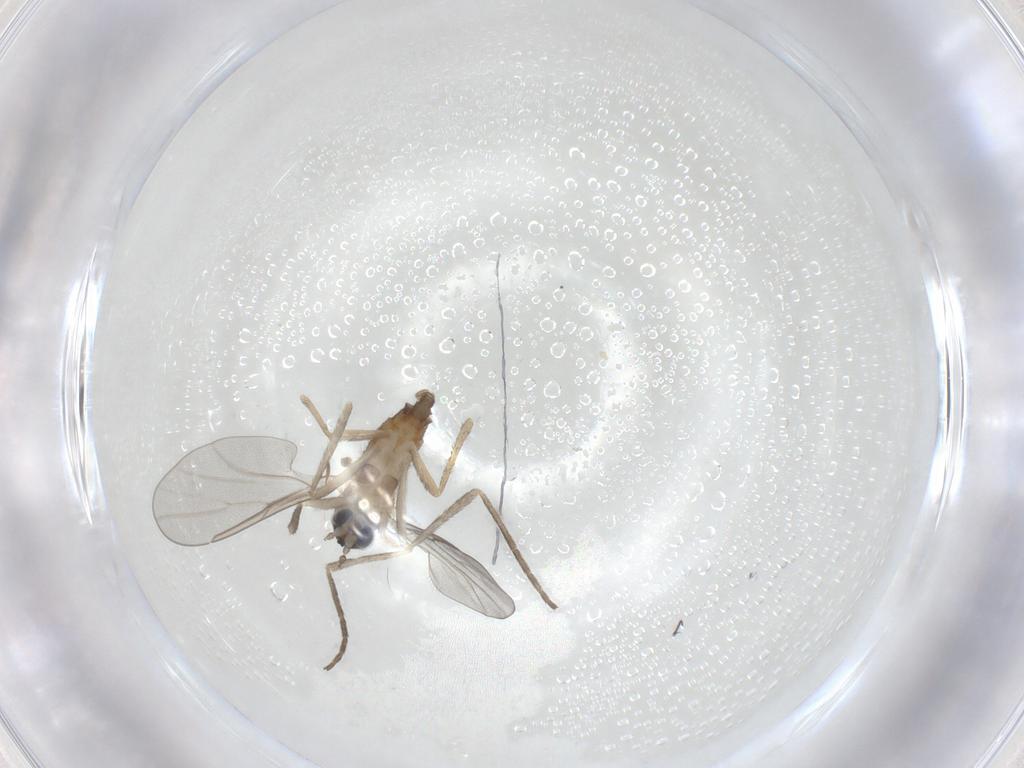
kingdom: Animalia
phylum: Arthropoda
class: Insecta
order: Diptera
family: Cecidomyiidae
